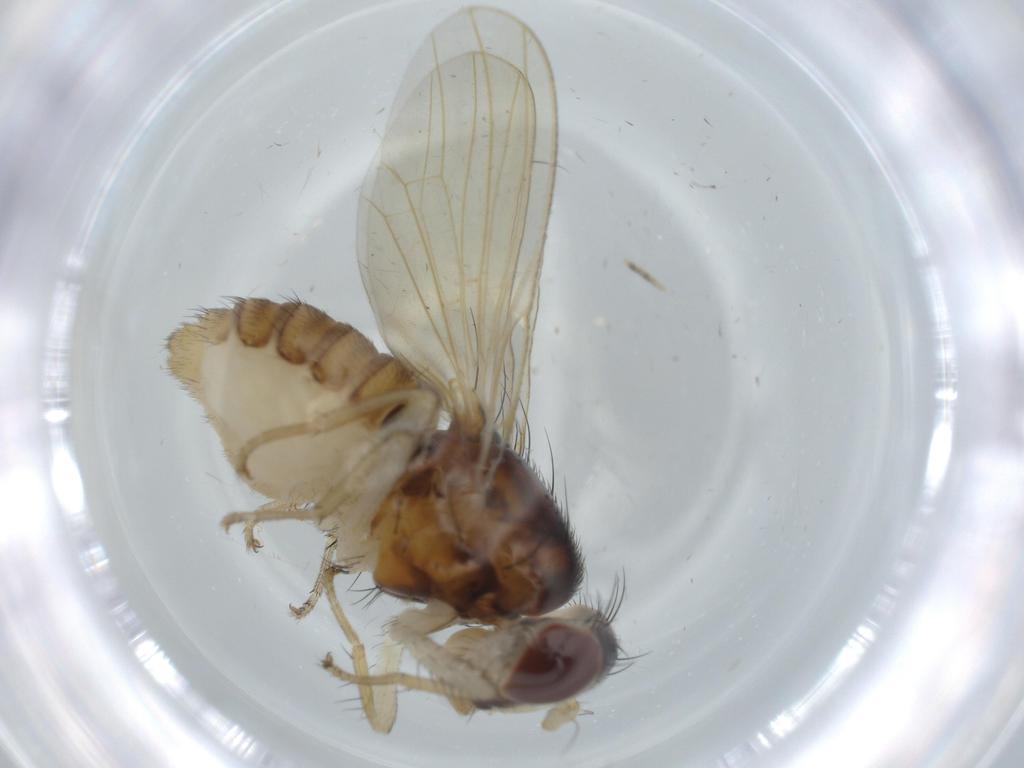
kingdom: Animalia
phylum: Arthropoda
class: Insecta
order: Diptera
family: Lauxaniidae
